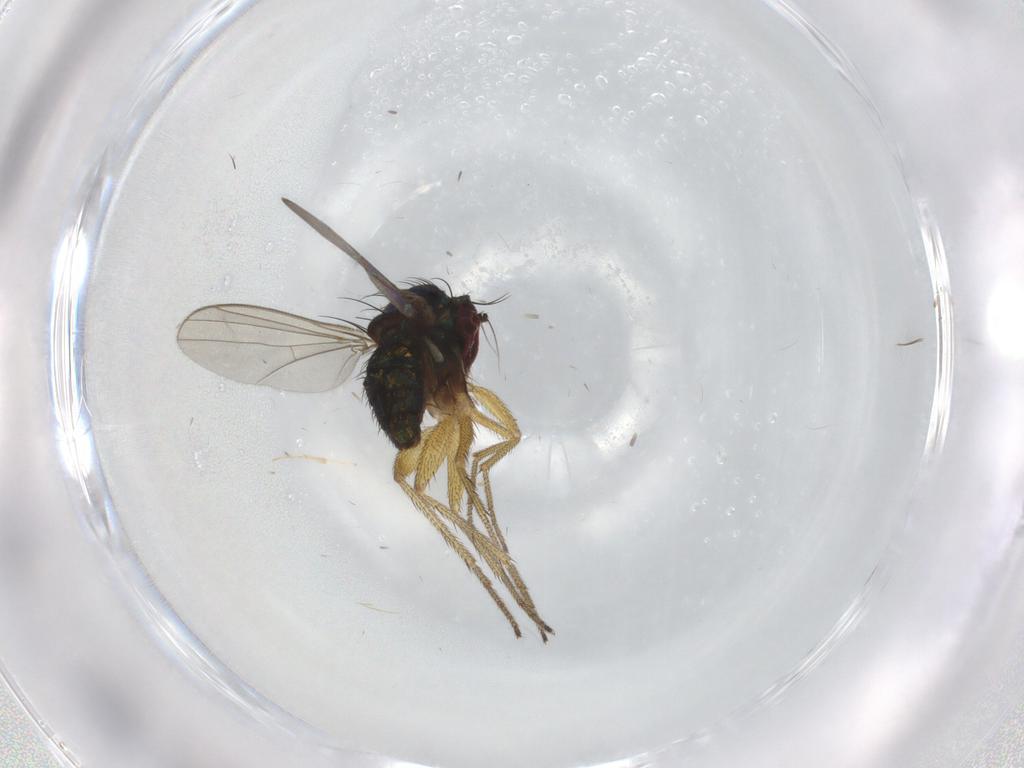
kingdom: Animalia
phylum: Arthropoda
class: Insecta
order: Diptera
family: Dolichopodidae
